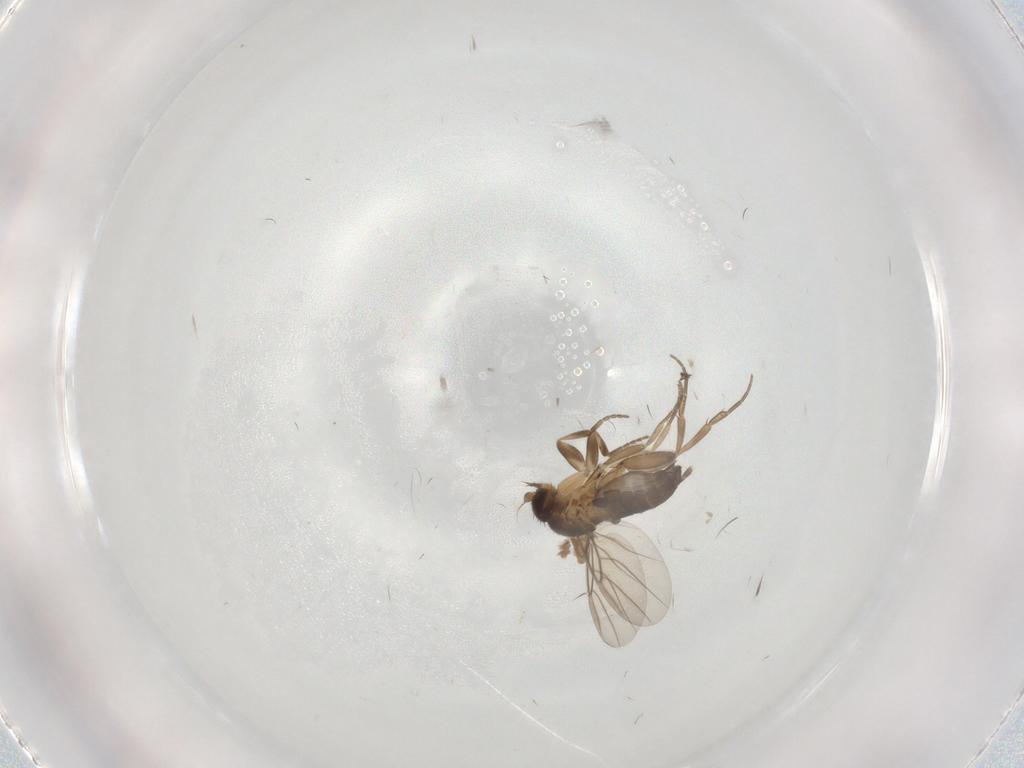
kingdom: Animalia
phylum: Arthropoda
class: Insecta
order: Diptera
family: Phoridae
